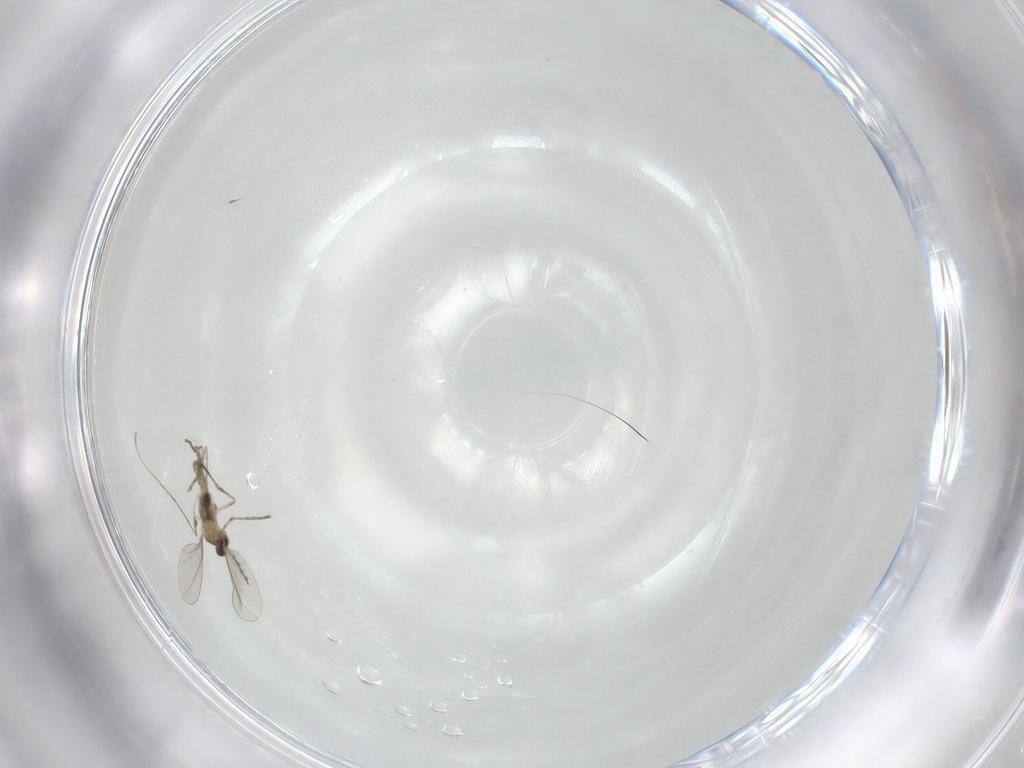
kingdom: Animalia
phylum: Arthropoda
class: Insecta
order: Diptera
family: Cecidomyiidae
